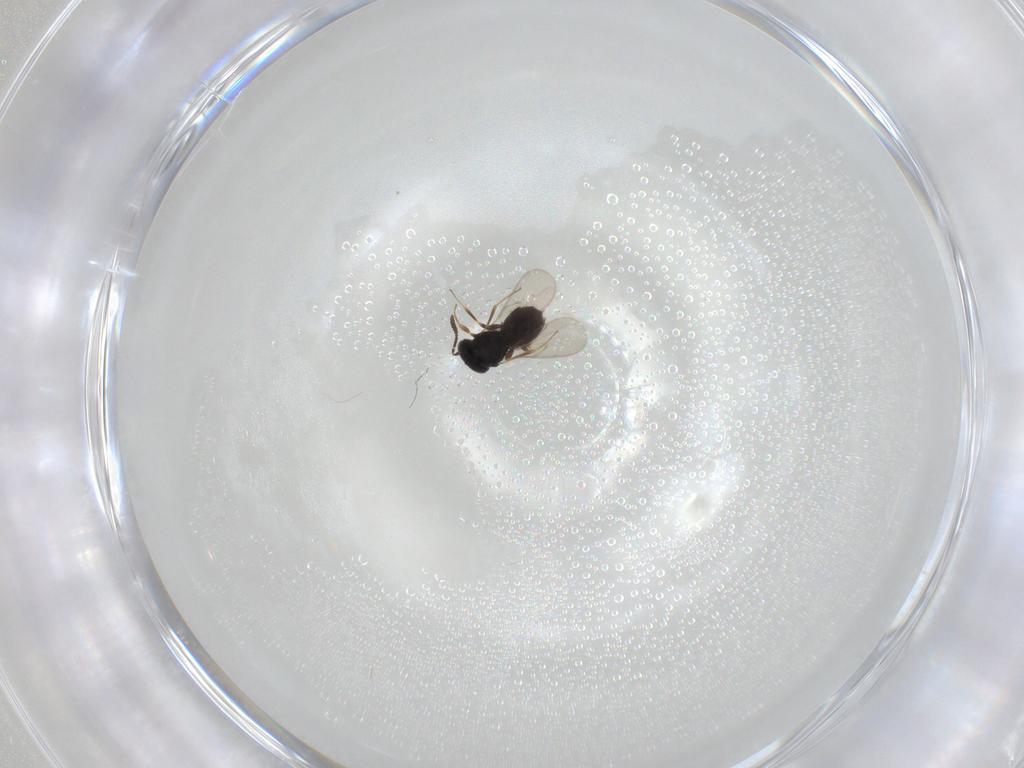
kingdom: Animalia
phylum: Arthropoda
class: Insecta
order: Hymenoptera
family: Scelionidae
